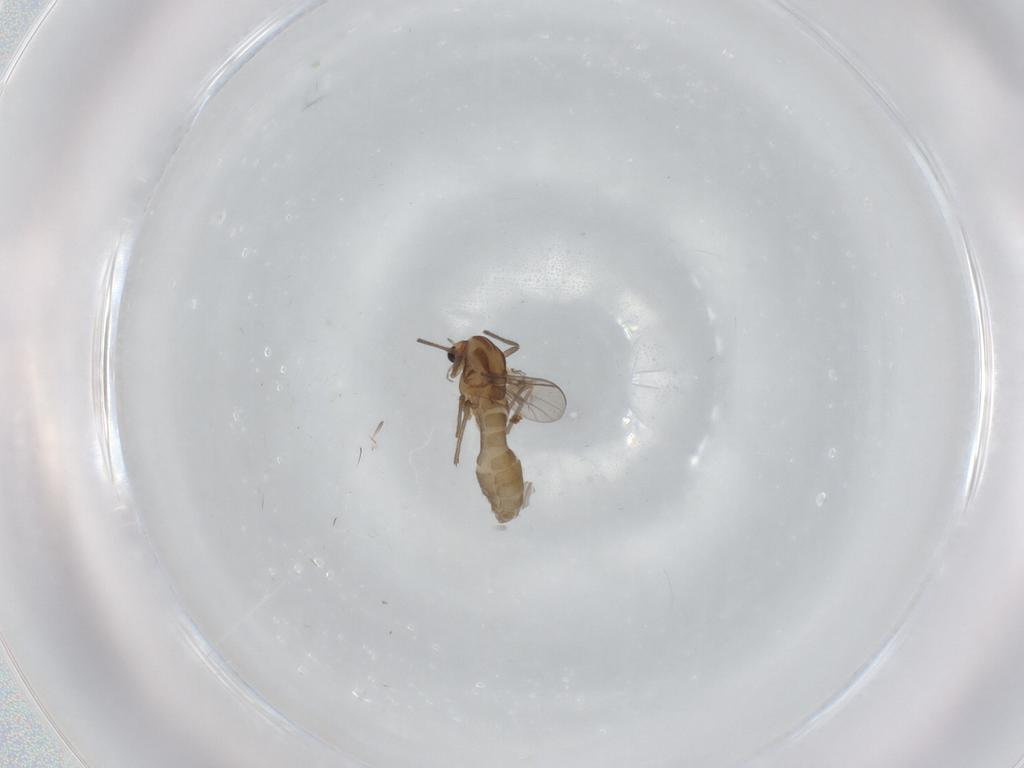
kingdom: Animalia
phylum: Arthropoda
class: Insecta
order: Diptera
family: Chironomidae
